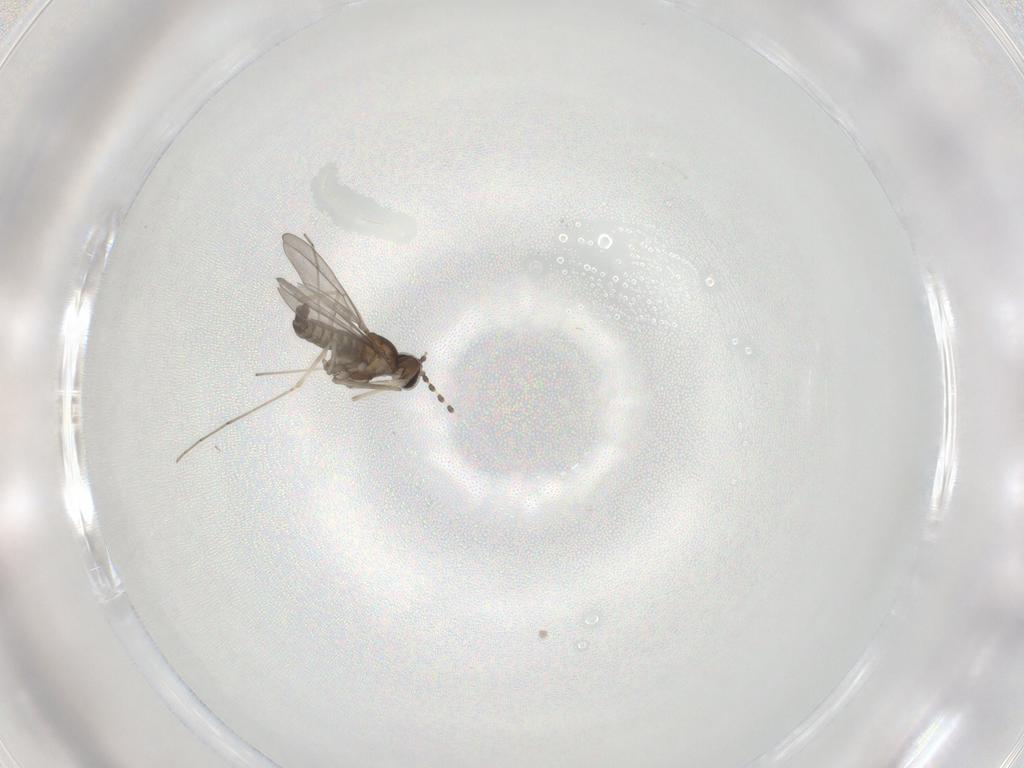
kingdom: Animalia
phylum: Arthropoda
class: Insecta
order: Diptera
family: Cecidomyiidae
